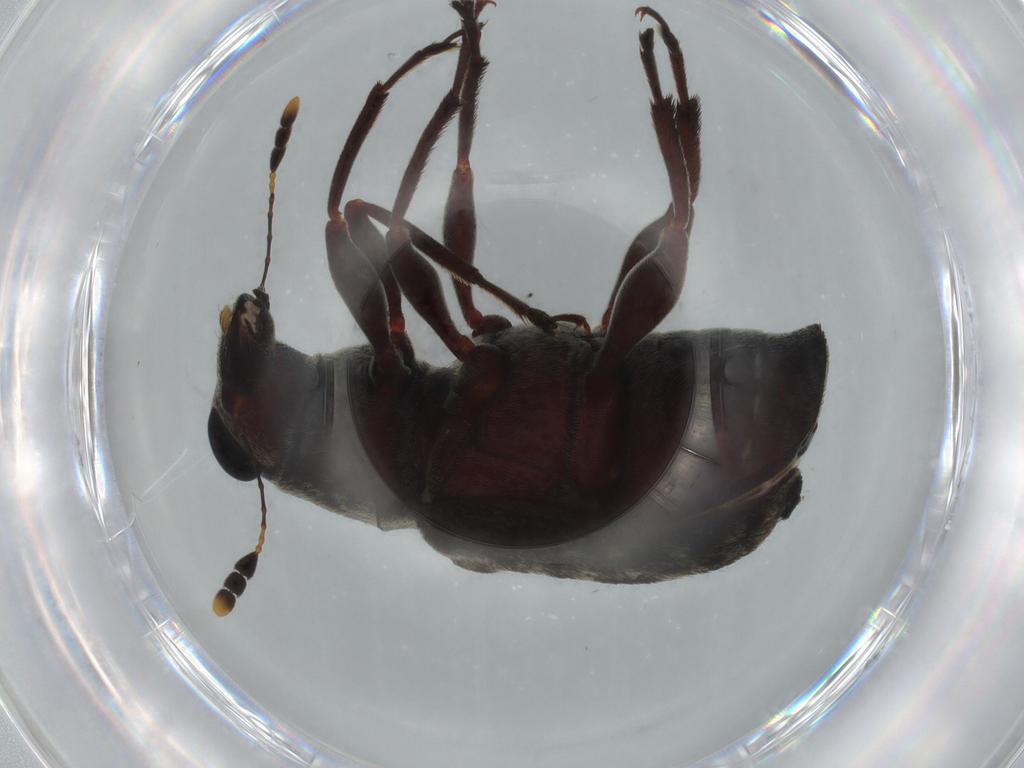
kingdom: Animalia
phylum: Arthropoda
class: Insecta
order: Coleoptera
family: Anthribidae
